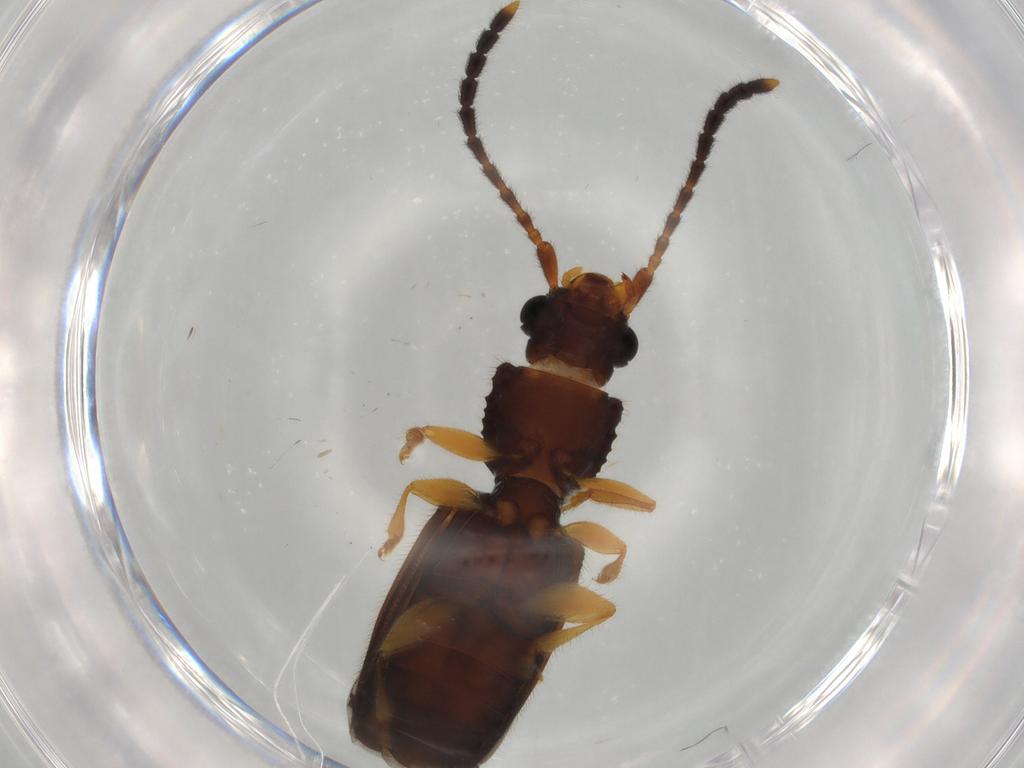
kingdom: Animalia
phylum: Arthropoda
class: Insecta
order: Coleoptera
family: Silvanidae
